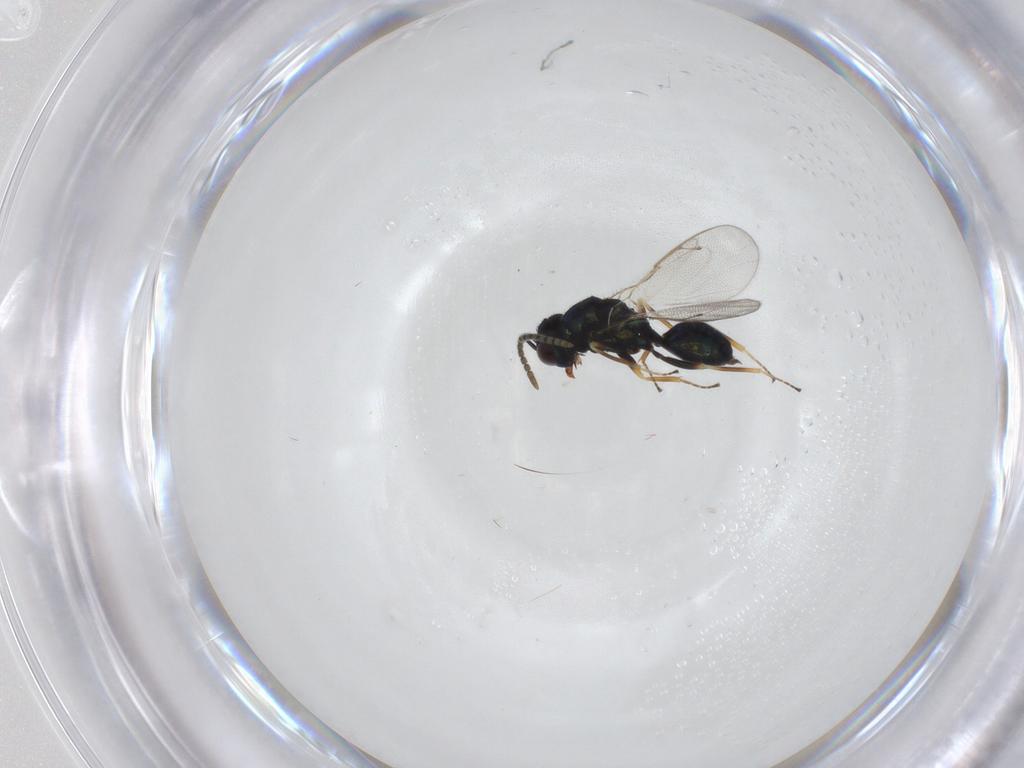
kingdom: Animalia
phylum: Arthropoda
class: Insecta
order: Hymenoptera
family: Pteromalidae
